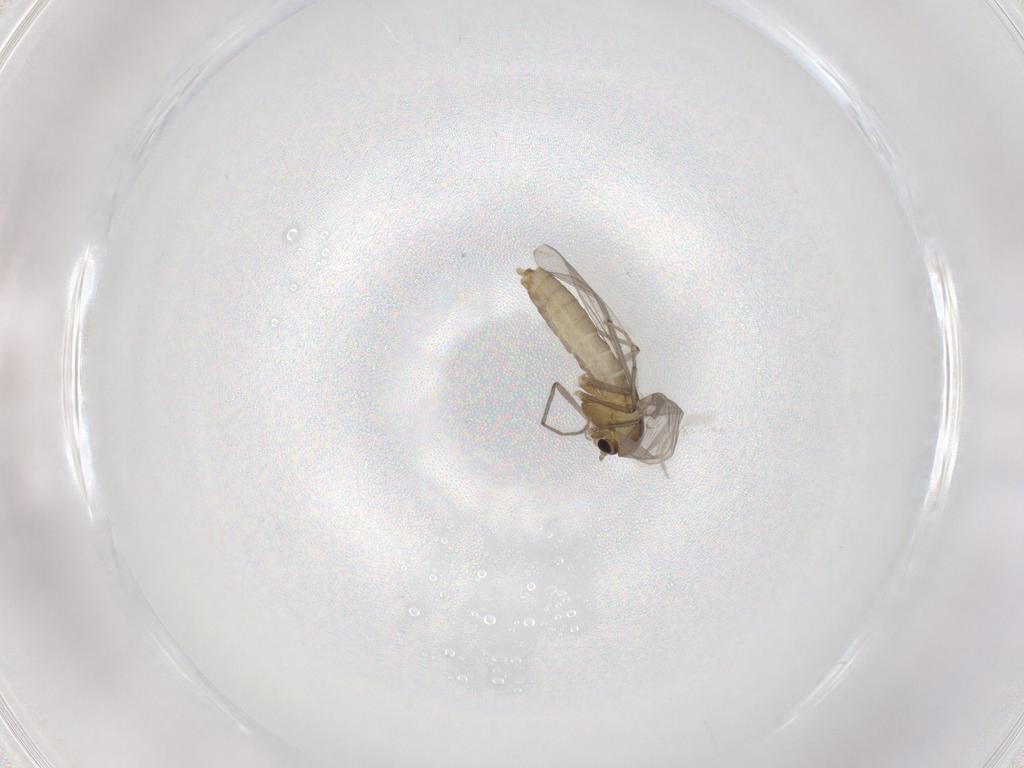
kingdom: Animalia
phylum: Arthropoda
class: Insecta
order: Diptera
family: Chironomidae
